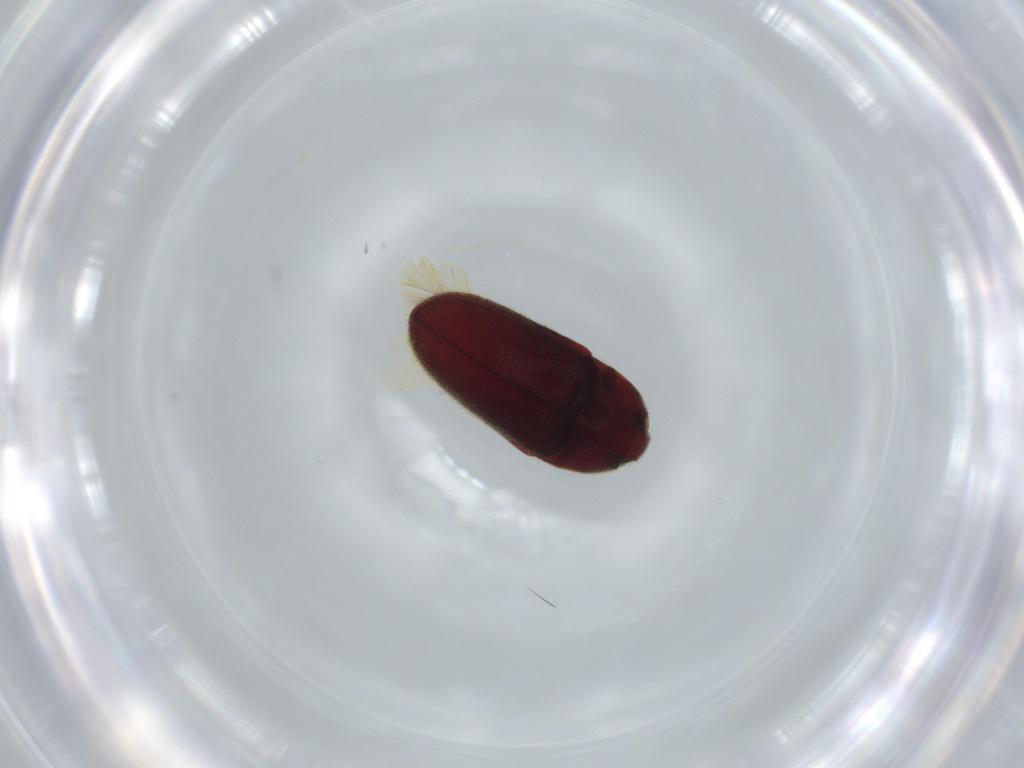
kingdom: Animalia
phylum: Arthropoda
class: Insecta
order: Coleoptera
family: Throscidae
